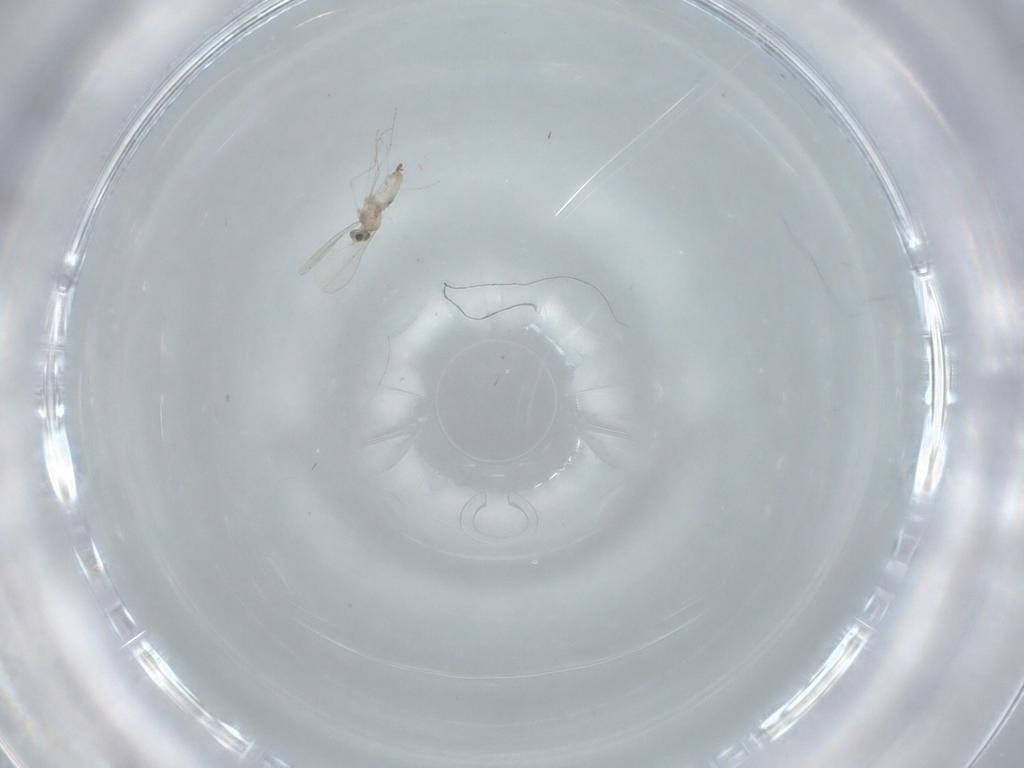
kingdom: Animalia
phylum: Arthropoda
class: Insecta
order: Diptera
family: Cecidomyiidae
